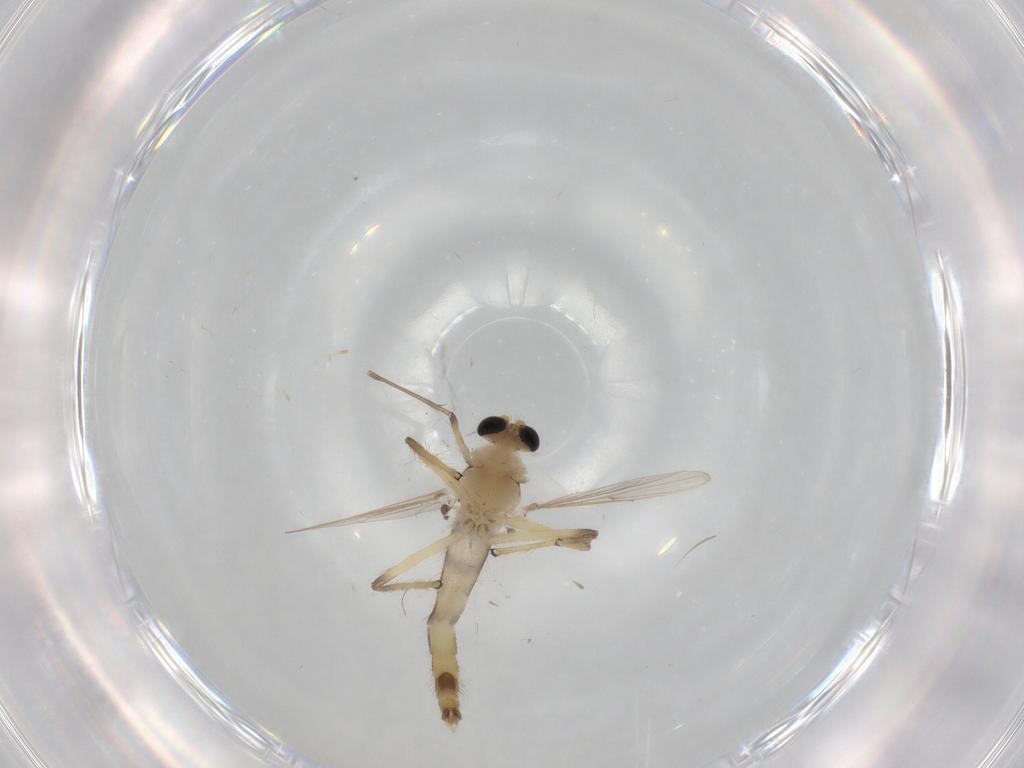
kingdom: Animalia
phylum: Arthropoda
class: Insecta
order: Diptera
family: Chironomidae
